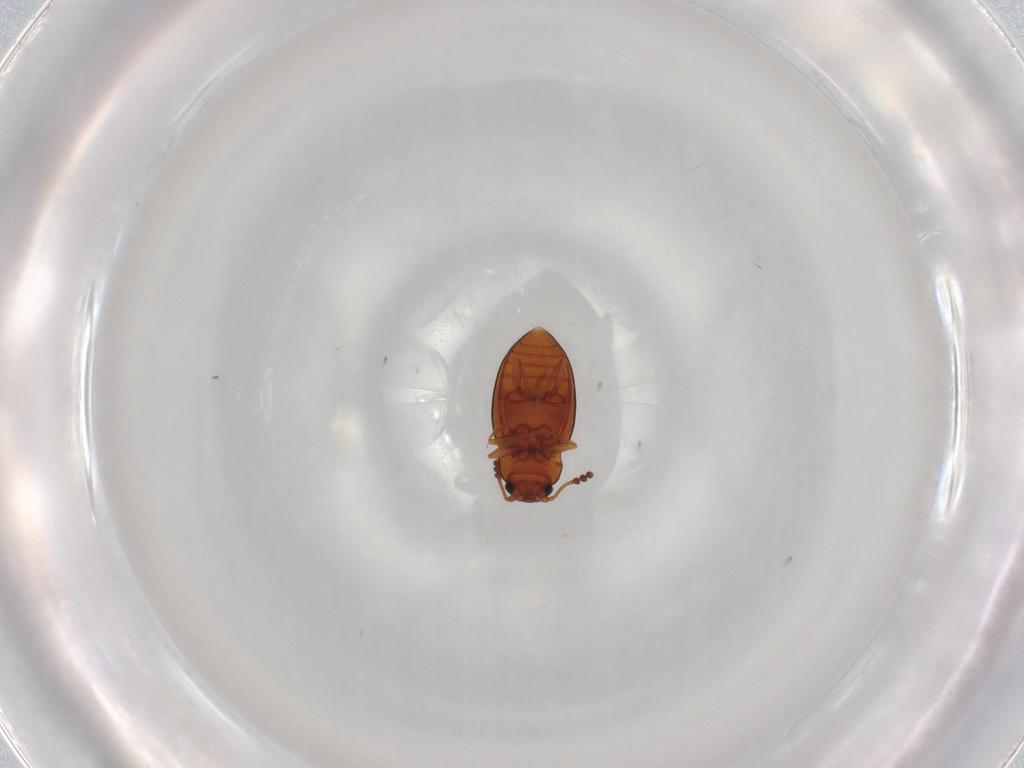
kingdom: Animalia
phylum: Arthropoda
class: Insecta
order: Coleoptera
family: Erotylidae
